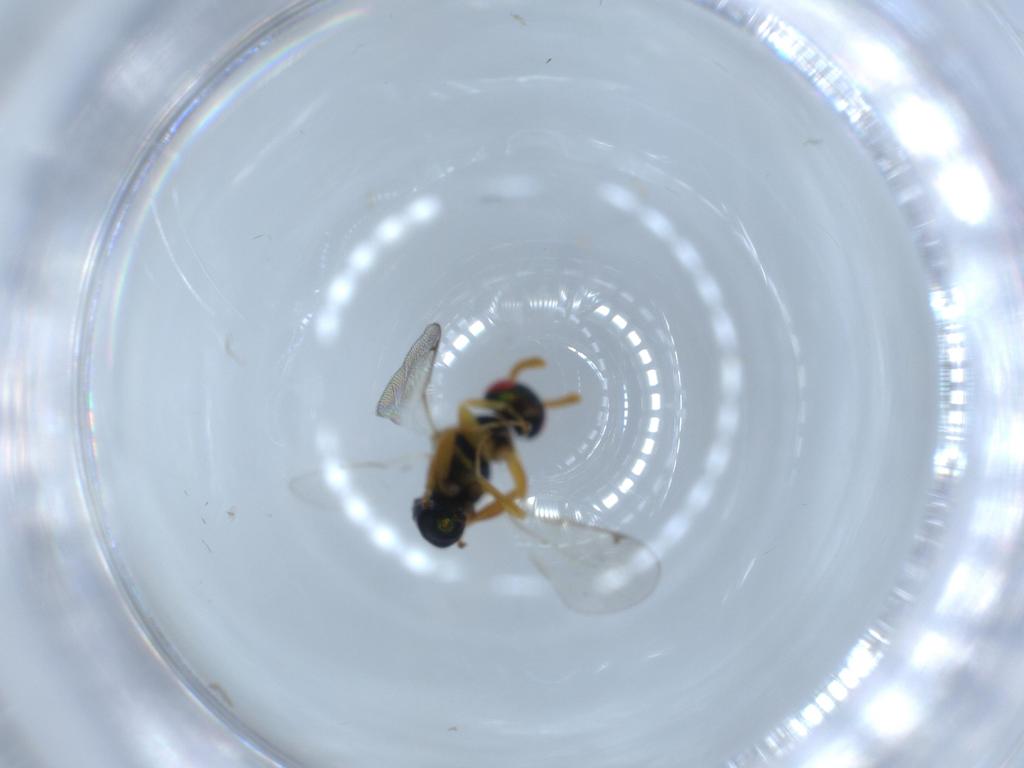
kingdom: Animalia
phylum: Arthropoda
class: Insecta
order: Hymenoptera
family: Torymidae
